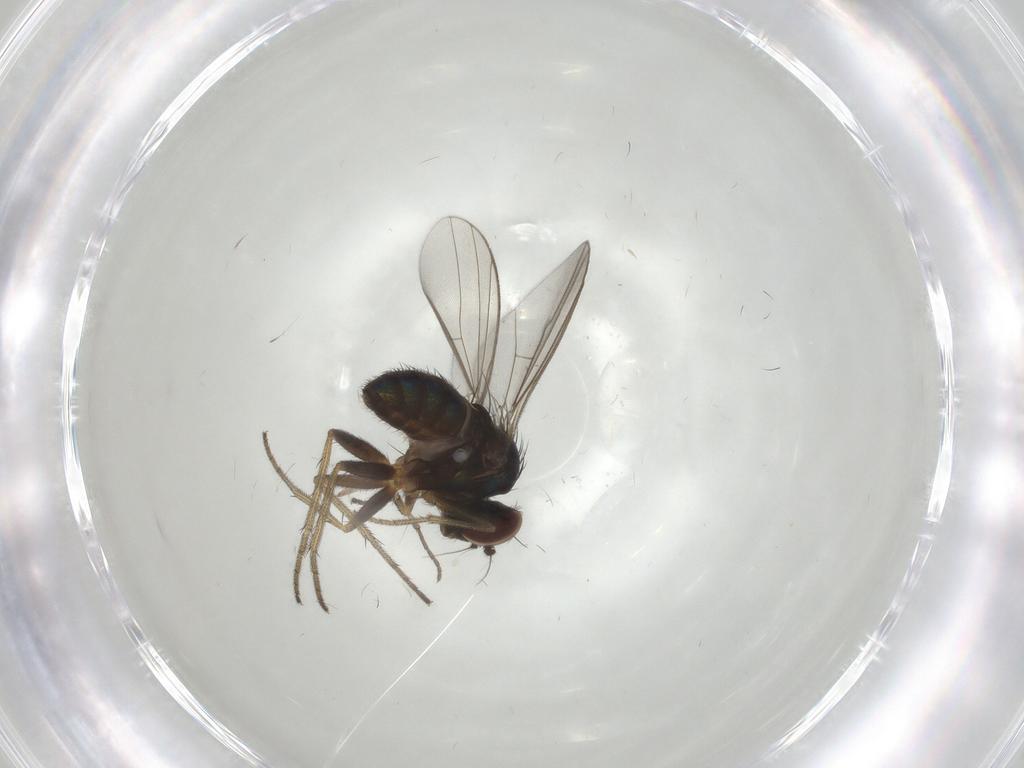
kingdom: Animalia
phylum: Arthropoda
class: Insecta
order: Diptera
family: Sciaridae
